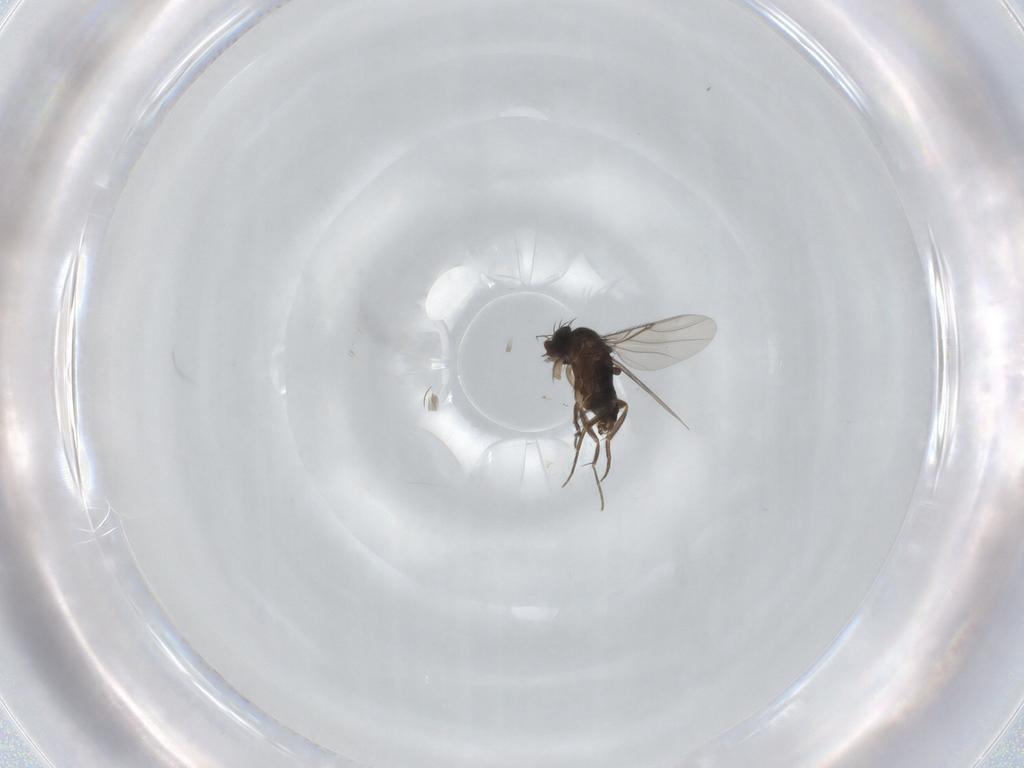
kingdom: Animalia
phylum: Arthropoda
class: Insecta
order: Diptera
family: Phoridae
